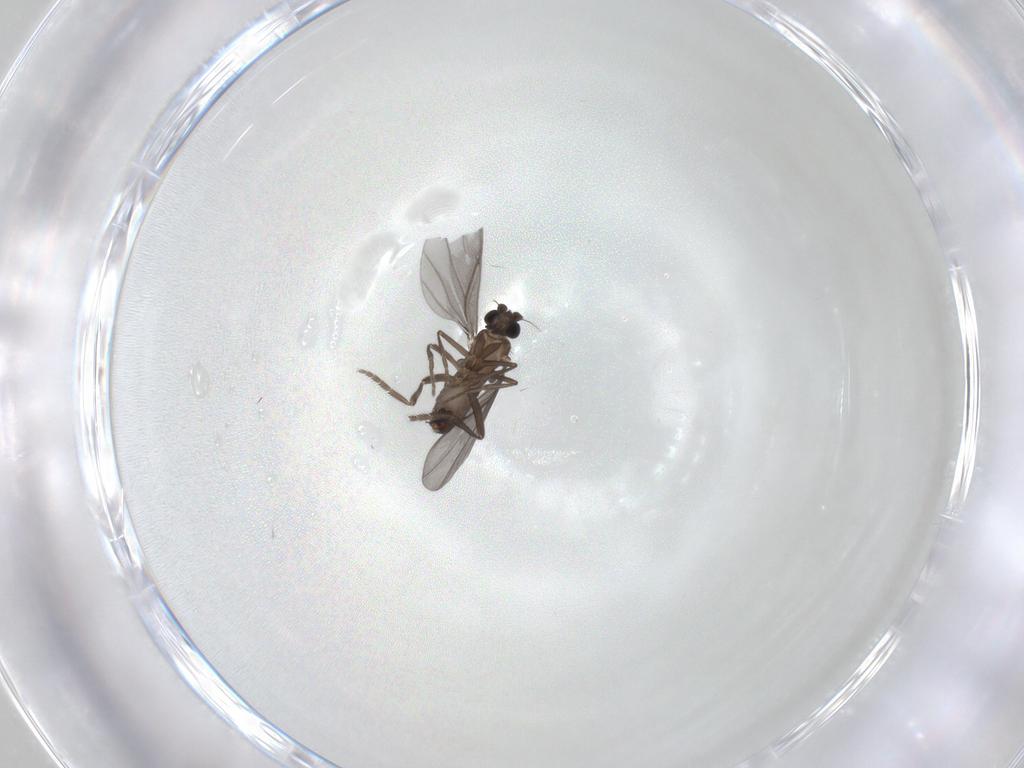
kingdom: Animalia
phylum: Arthropoda
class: Insecta
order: Diptera
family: Phoridae
